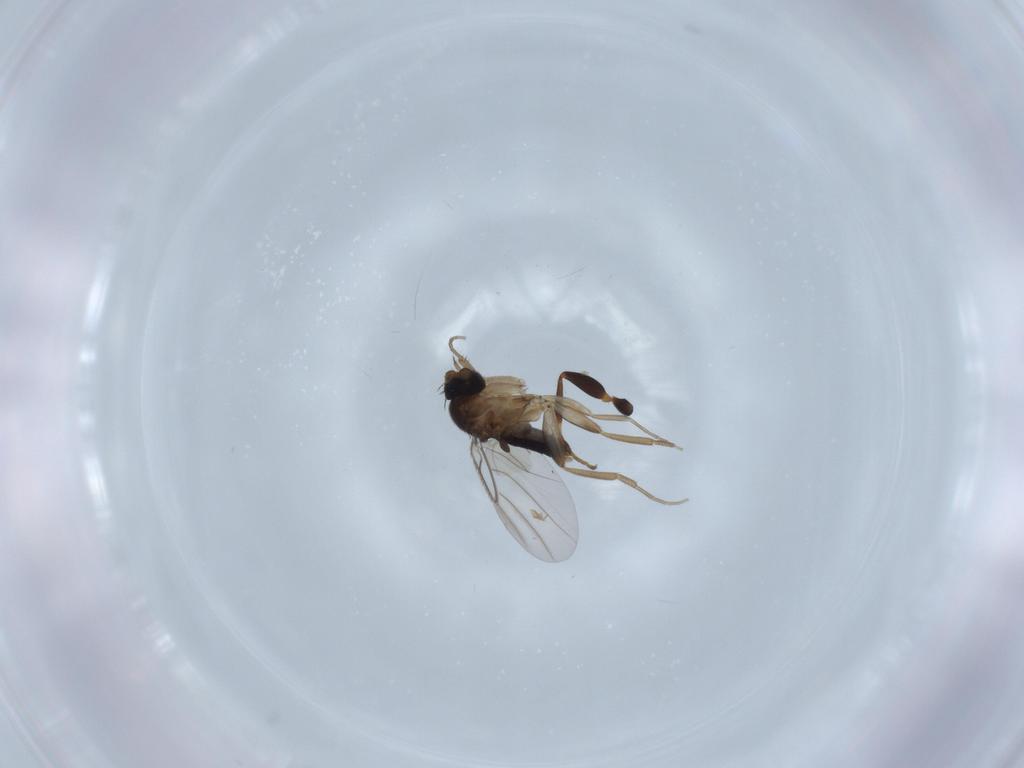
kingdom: Animalia
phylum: Arthropoda
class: Insecta
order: Diptera
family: Phoridae
